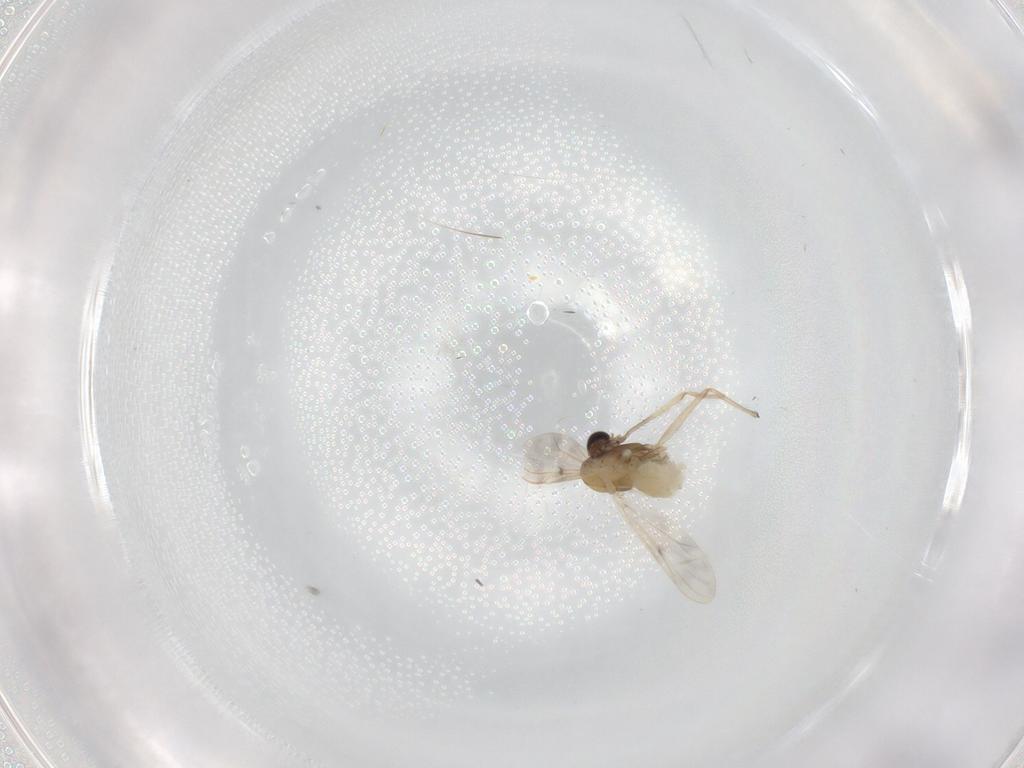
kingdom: Animalia
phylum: Arthropoda
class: Insecta
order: Diptera
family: Chironomidae
